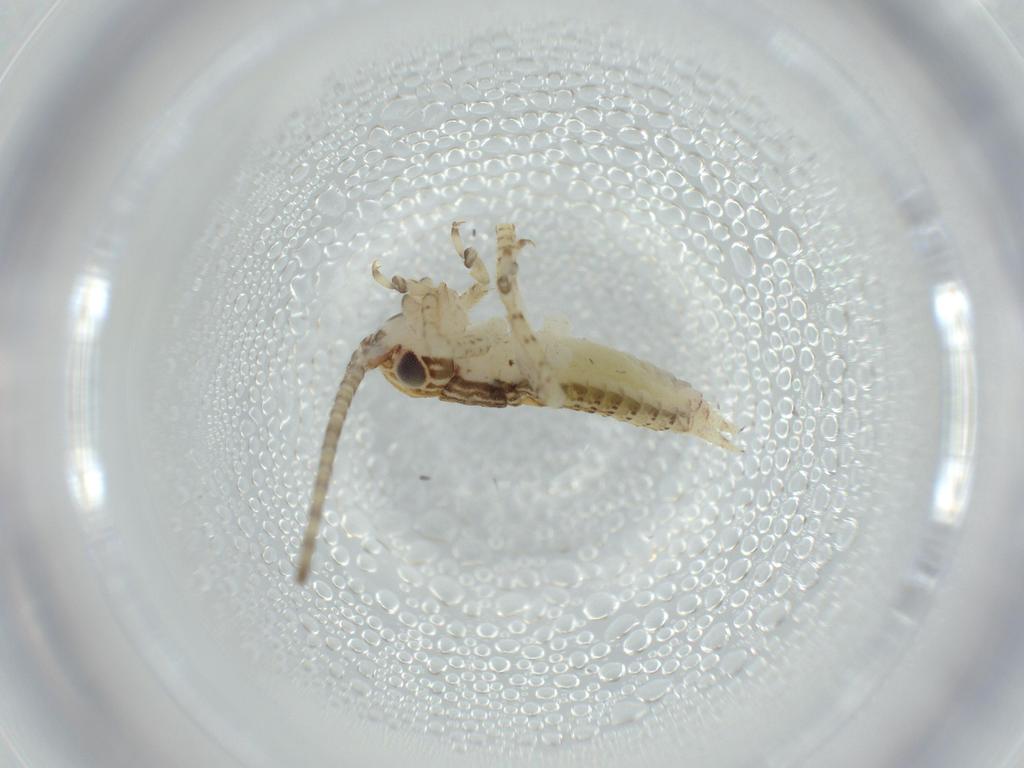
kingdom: Animalia
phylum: Arthropoda
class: Insecta
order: Orthoptera
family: Gryllidae
